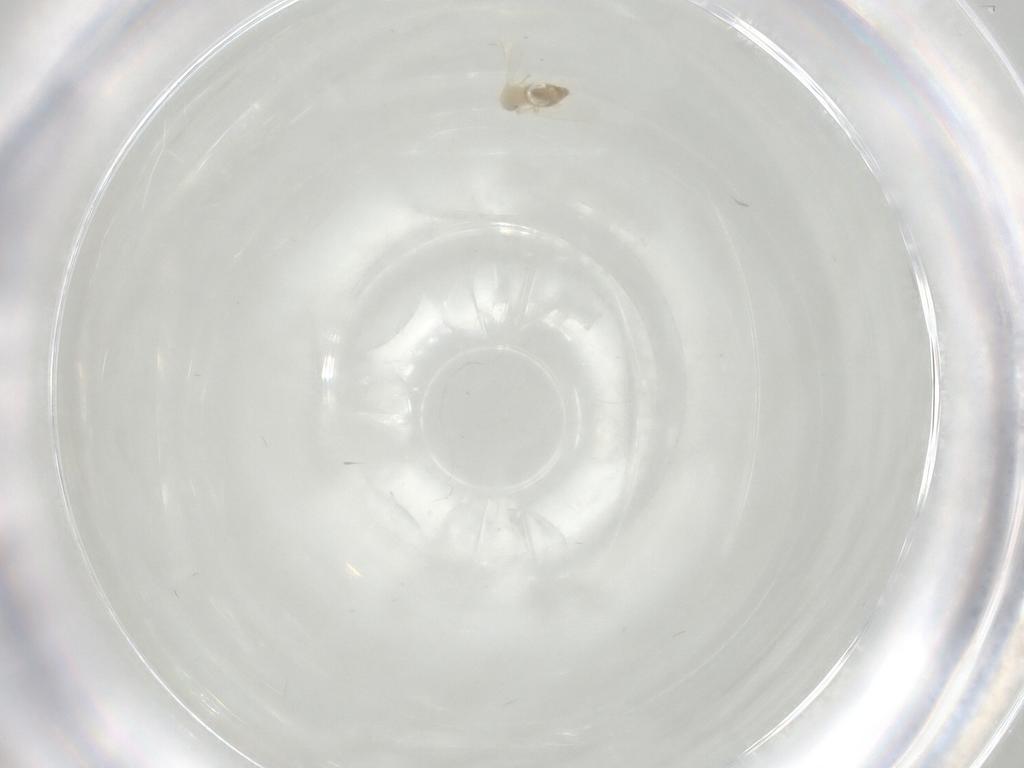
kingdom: Animalia
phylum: Arthropoda
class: Insecta
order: Hemiptera
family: Aleyrodidae
